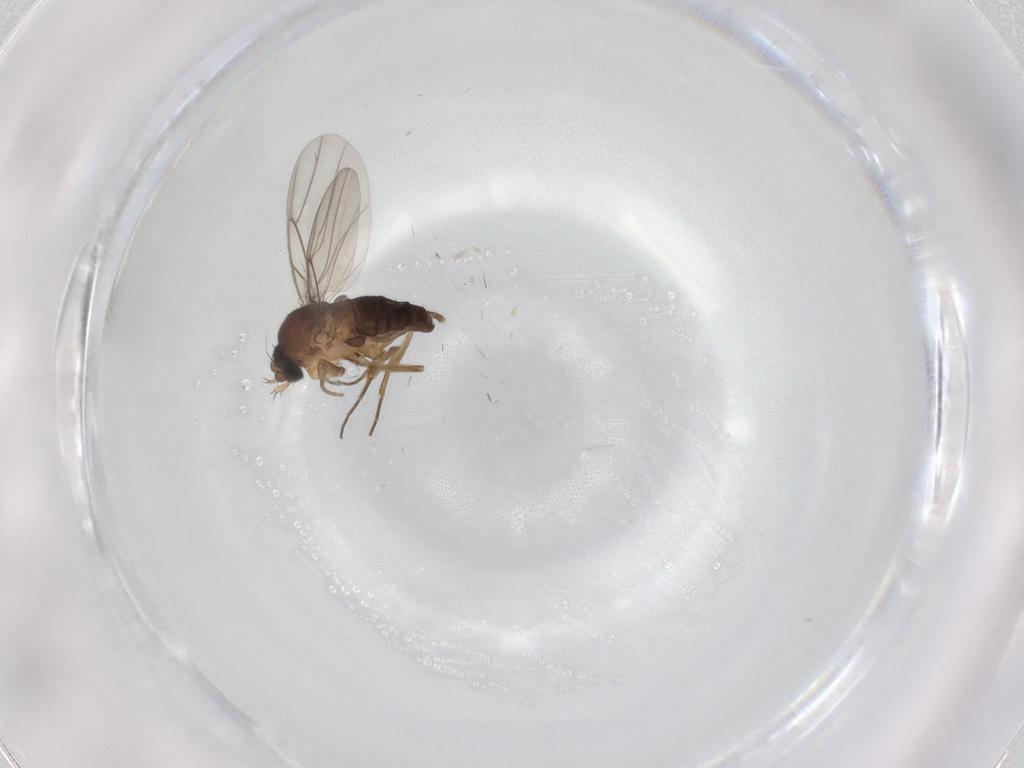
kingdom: Animalia
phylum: Arthropoda
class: Insecta
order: Diptera
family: Phoridae
